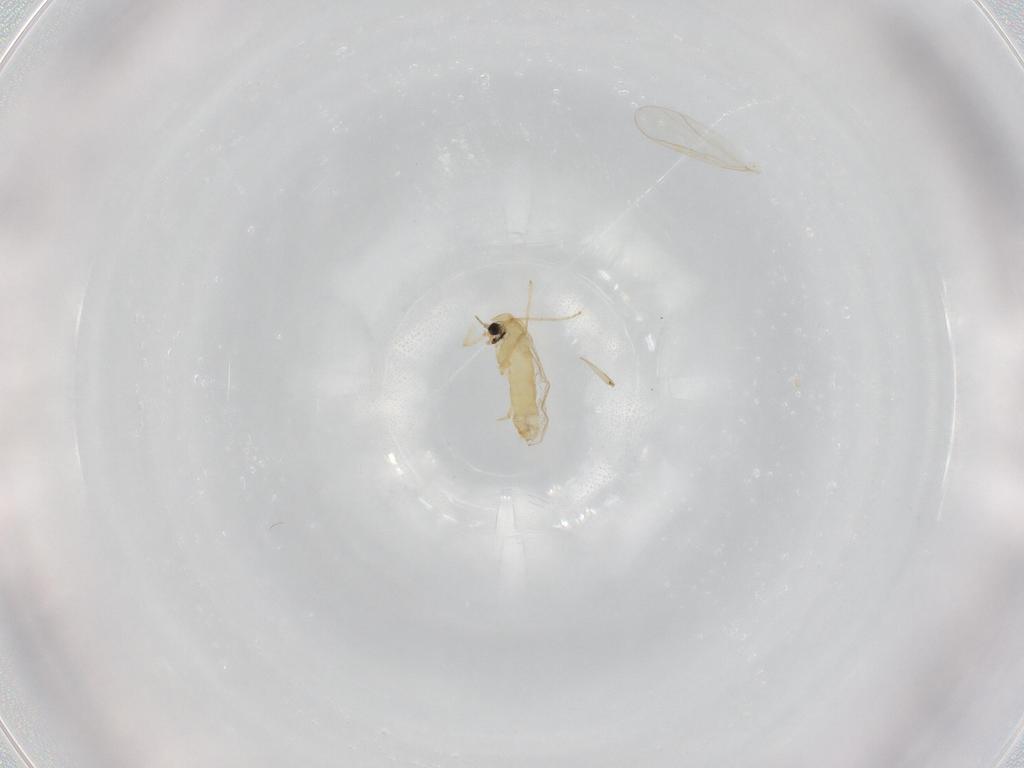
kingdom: Animalia
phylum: Arthropoda
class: Insecta
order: Diptera
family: Chironomidae
